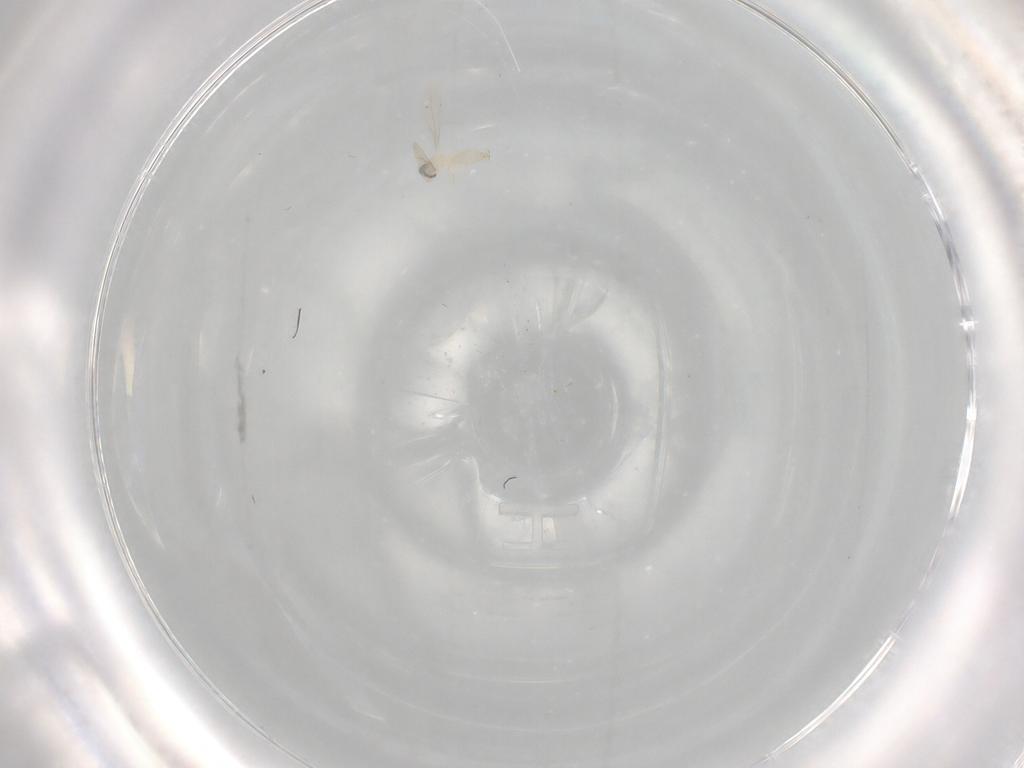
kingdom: Animalia
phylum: Arthropoda
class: Insecta
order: Diptera
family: Cecidomyiidae
